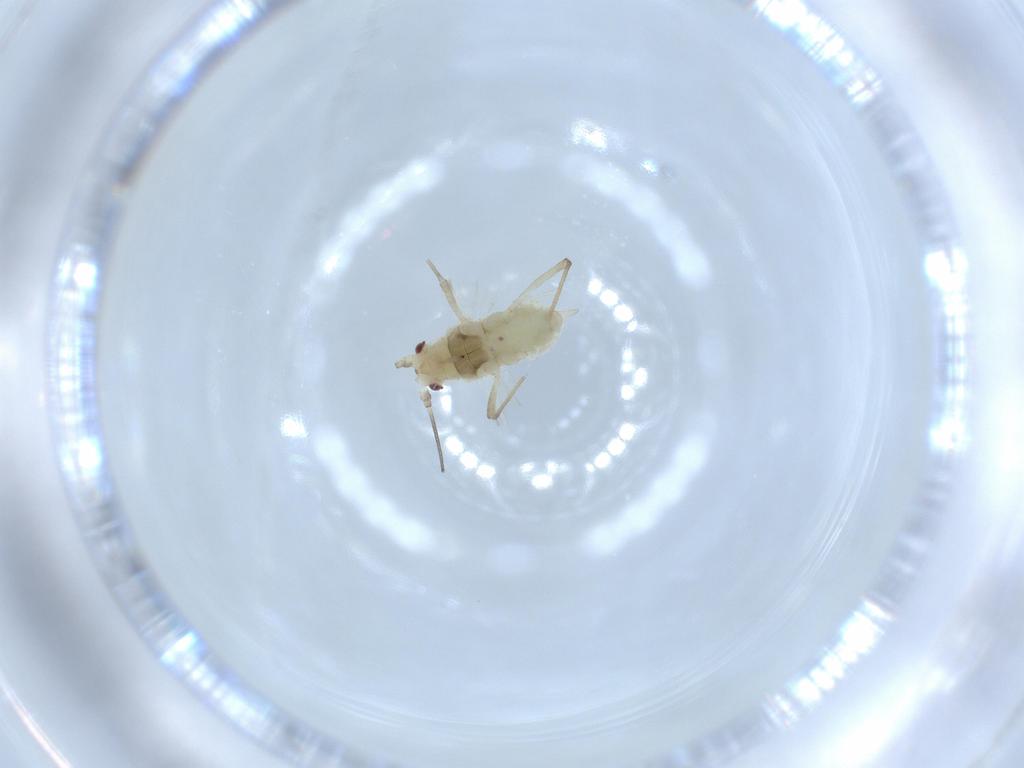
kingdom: Animalia
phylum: Arthropoda
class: Insecta
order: Hemiptera
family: Aphididae
